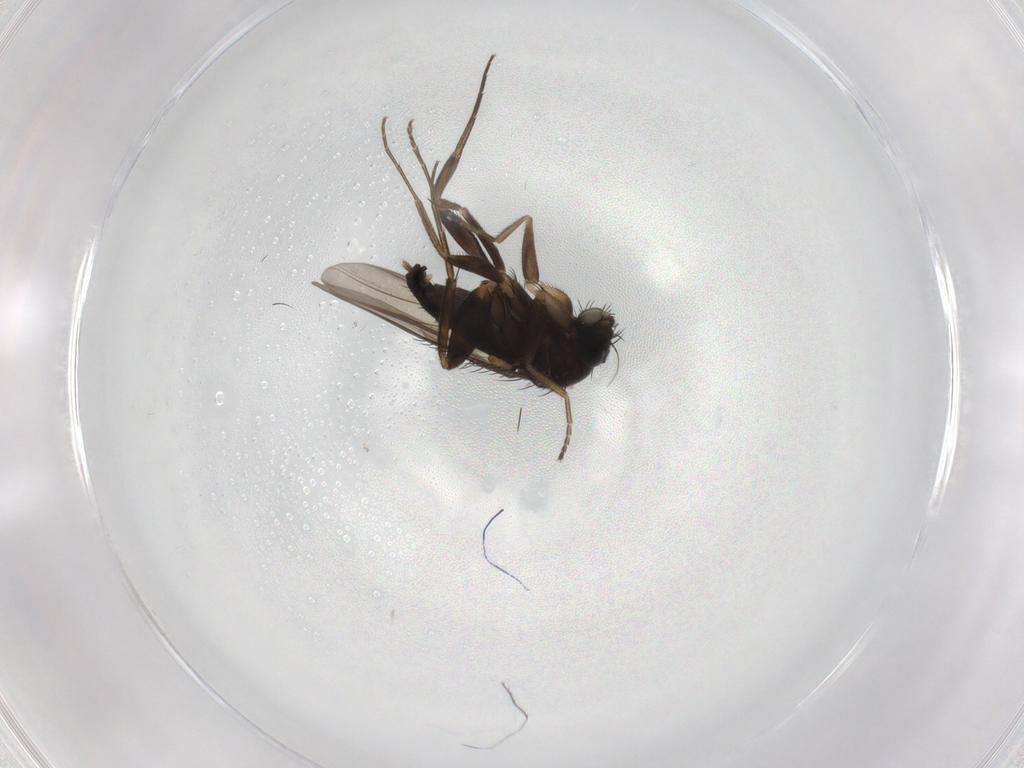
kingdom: Animalia
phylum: Arthropoda
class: Insecta
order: Diptera
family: Phoridae
